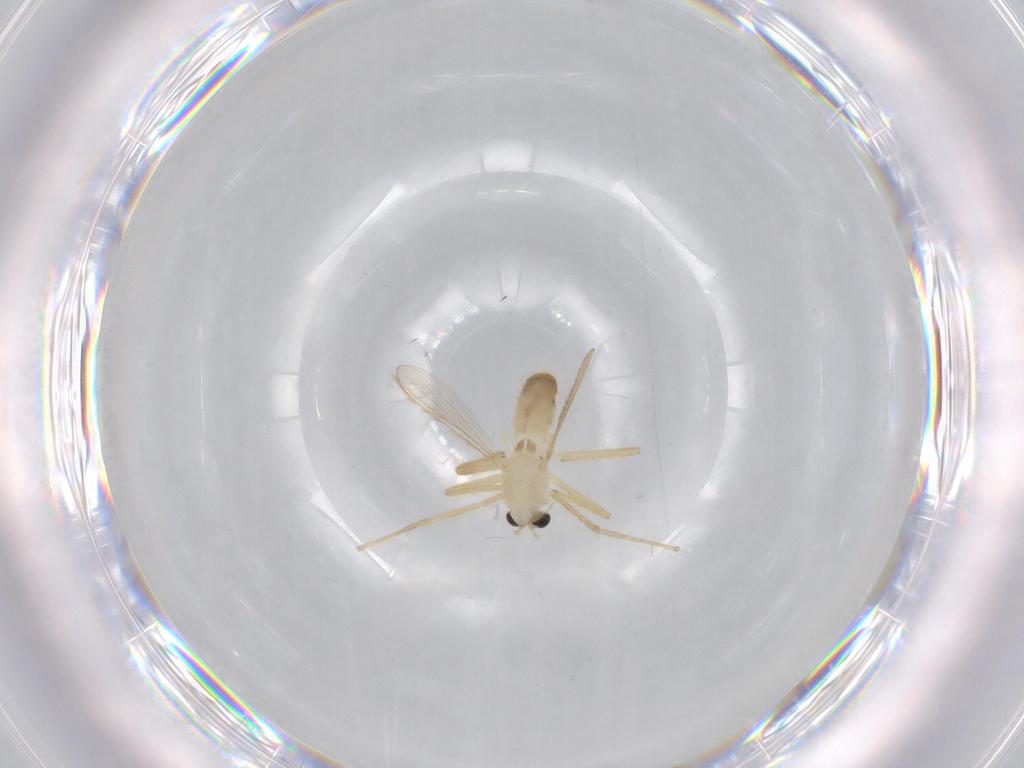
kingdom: Animalia
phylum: Arthropoda
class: Insecta
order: Diptera
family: Chironomidae
